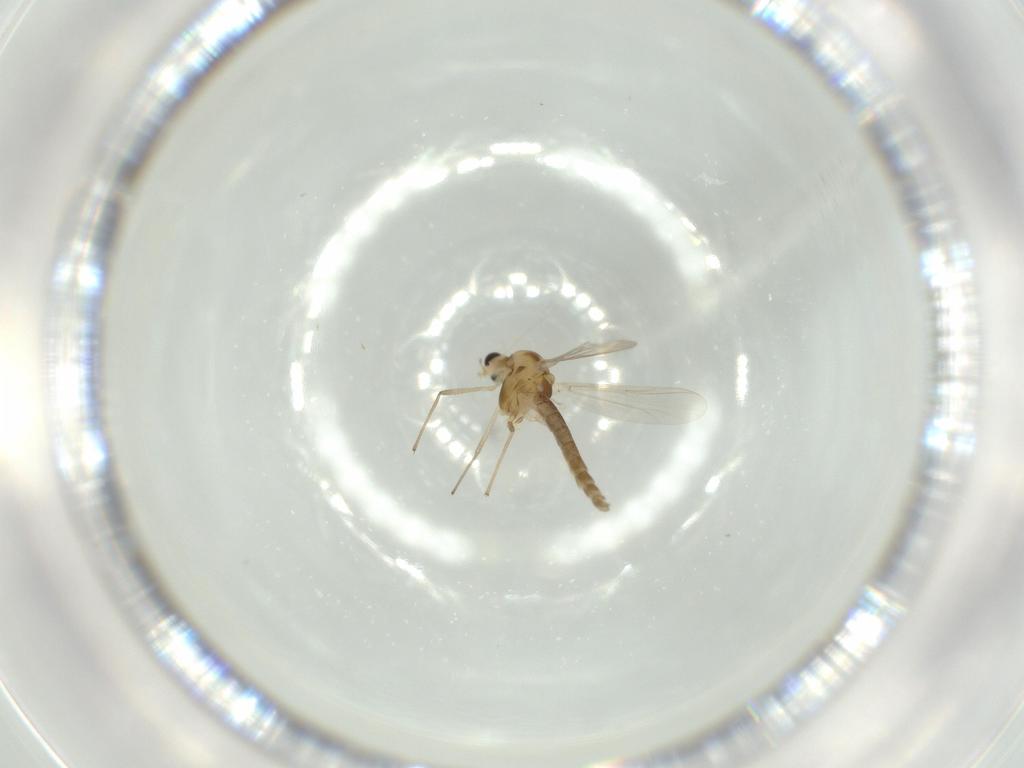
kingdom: Animalia
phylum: Arthropoda
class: Insecta
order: Diptera
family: Chironomidae
